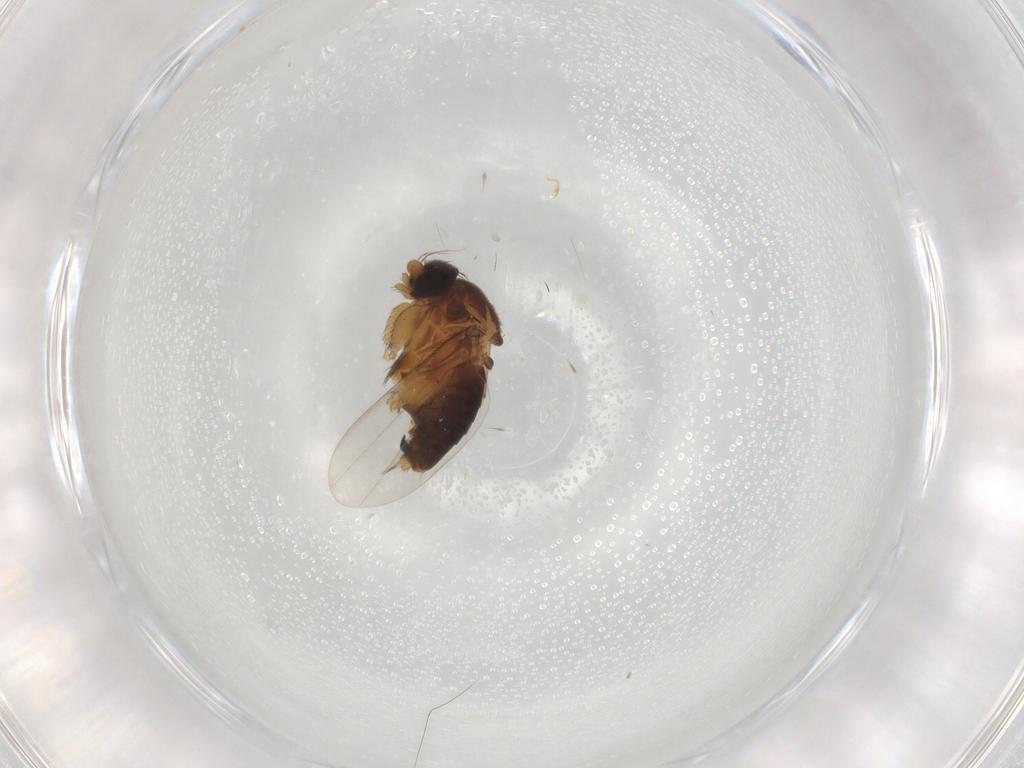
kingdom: Animalia
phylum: Arthropoda
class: Insecta
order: Diptera
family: Phoridae
